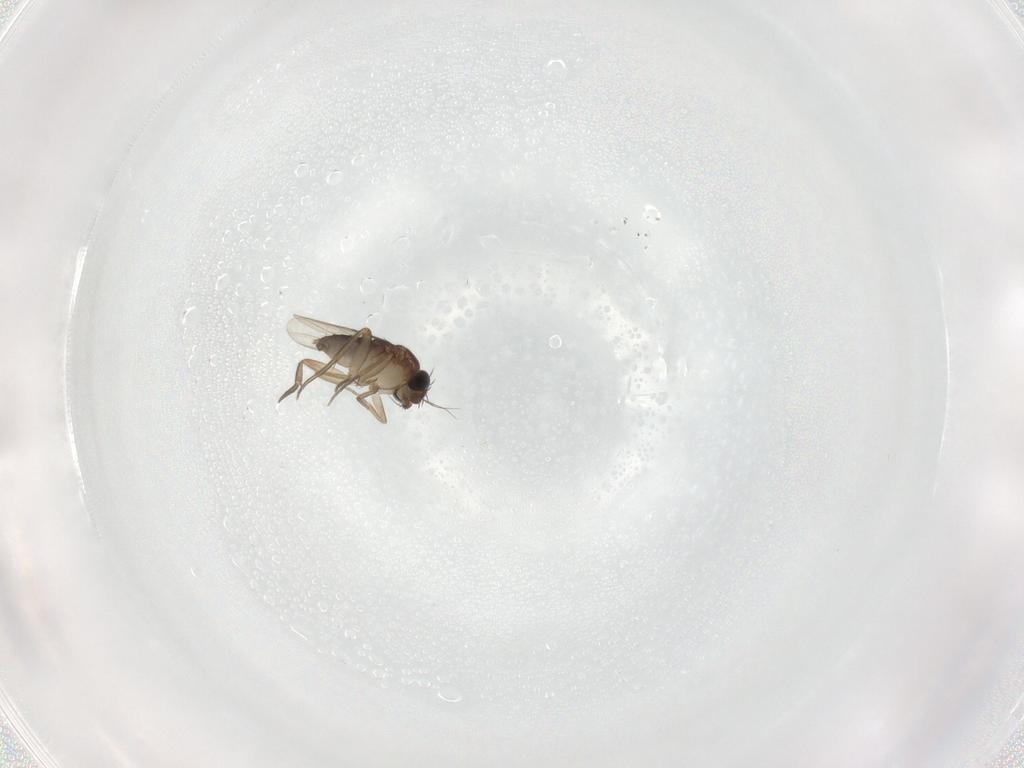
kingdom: Animalia
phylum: Arthropoda
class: Insecta
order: Diptera
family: Phoridae
